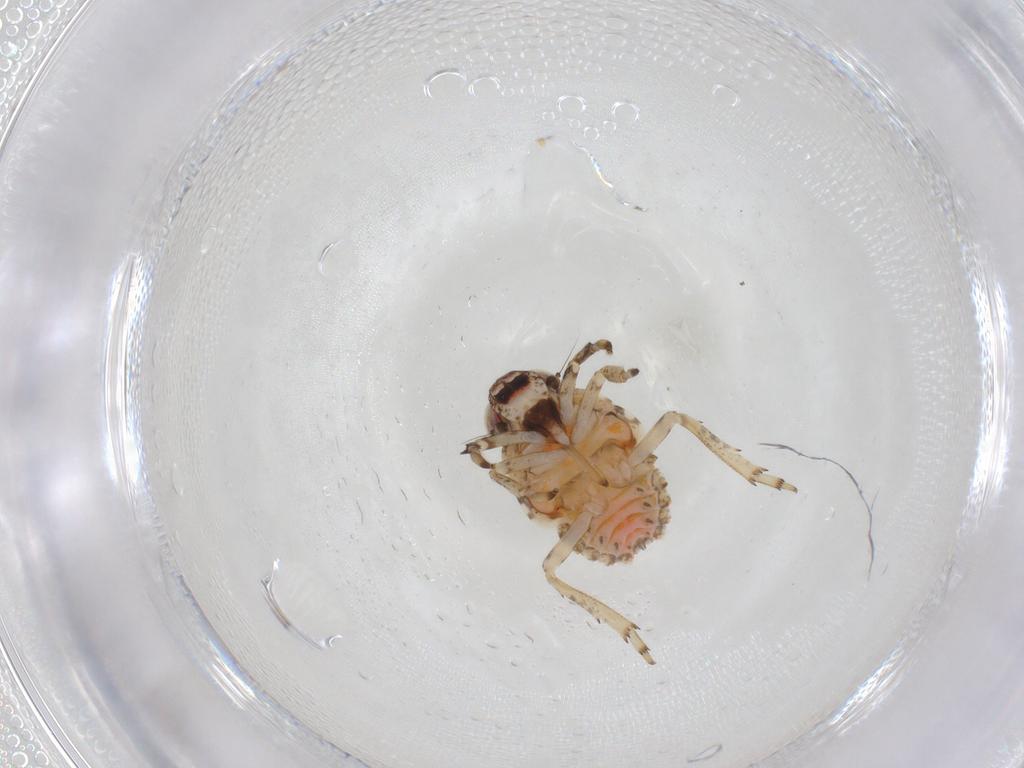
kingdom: Animalia
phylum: Arthropoda
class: Insecta
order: Hemiptera
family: Issidae
